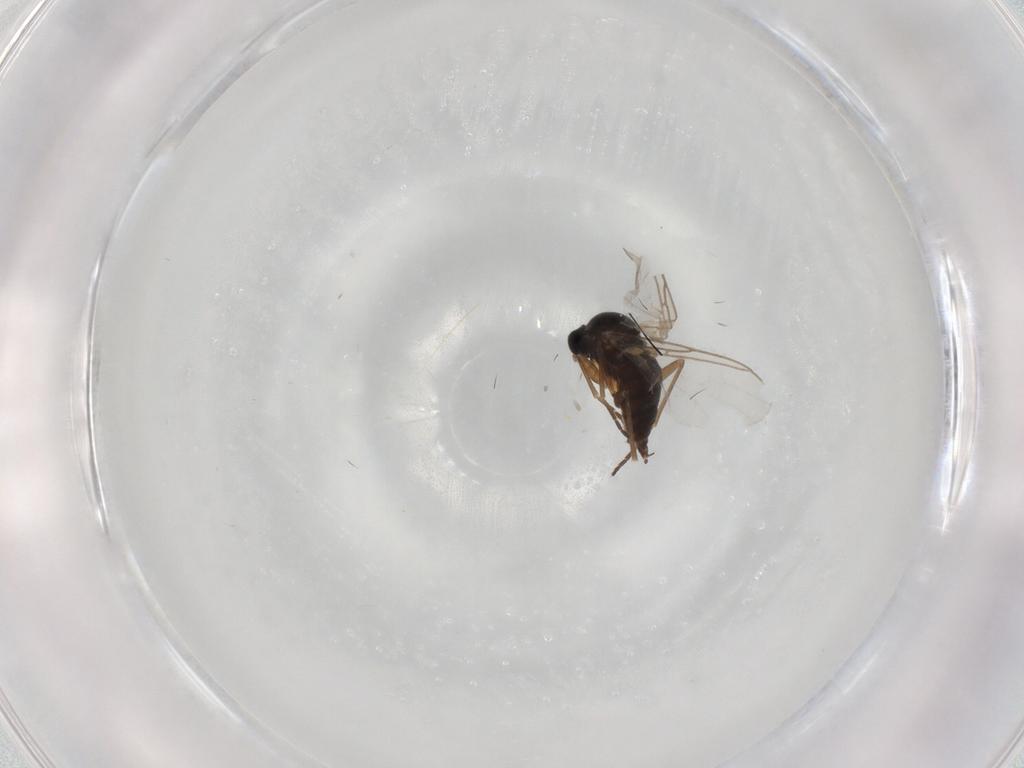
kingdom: Animalia
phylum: Arthropoda
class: Insecta
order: Diptera
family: Sciaridae
